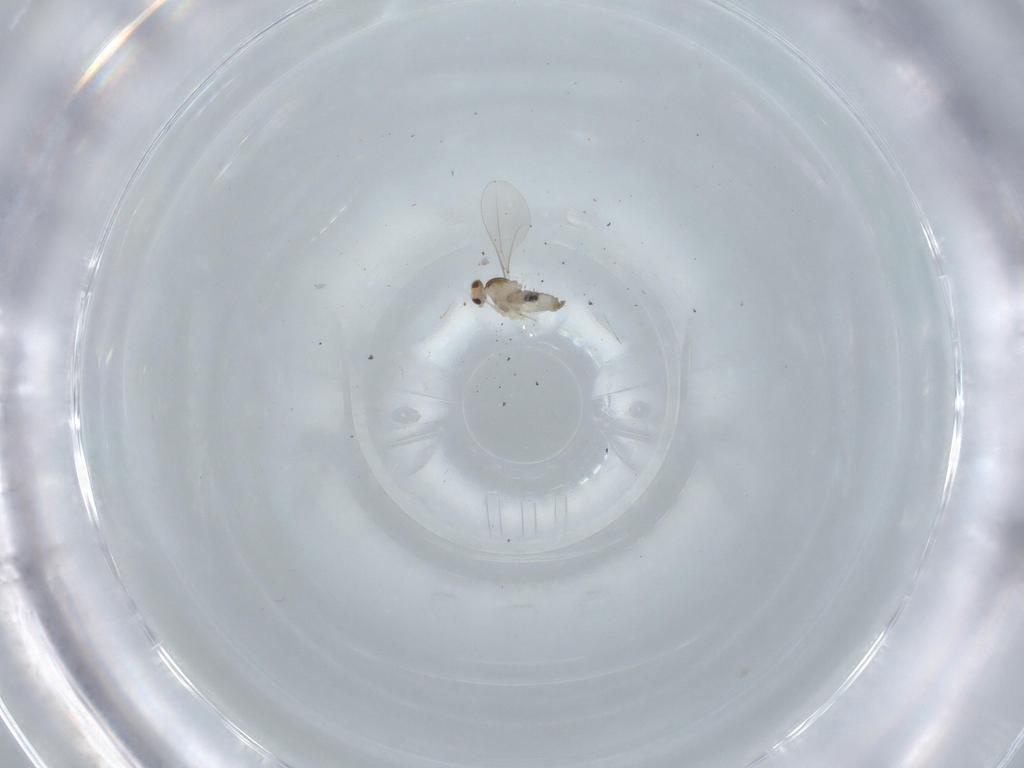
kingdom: Animalia
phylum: Arthropoda
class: Insecta
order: Diptera
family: Cecidomyiidae
